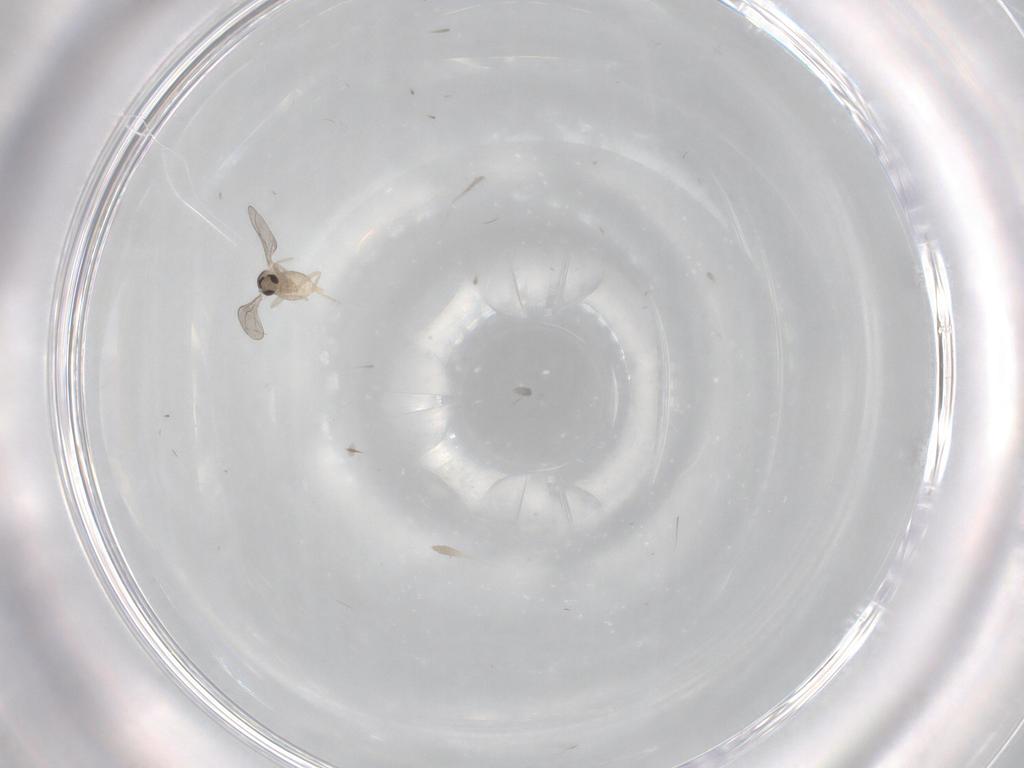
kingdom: Animalia
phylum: Arthropoda
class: Insecta
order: Diptera
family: Cecidomyiidae
